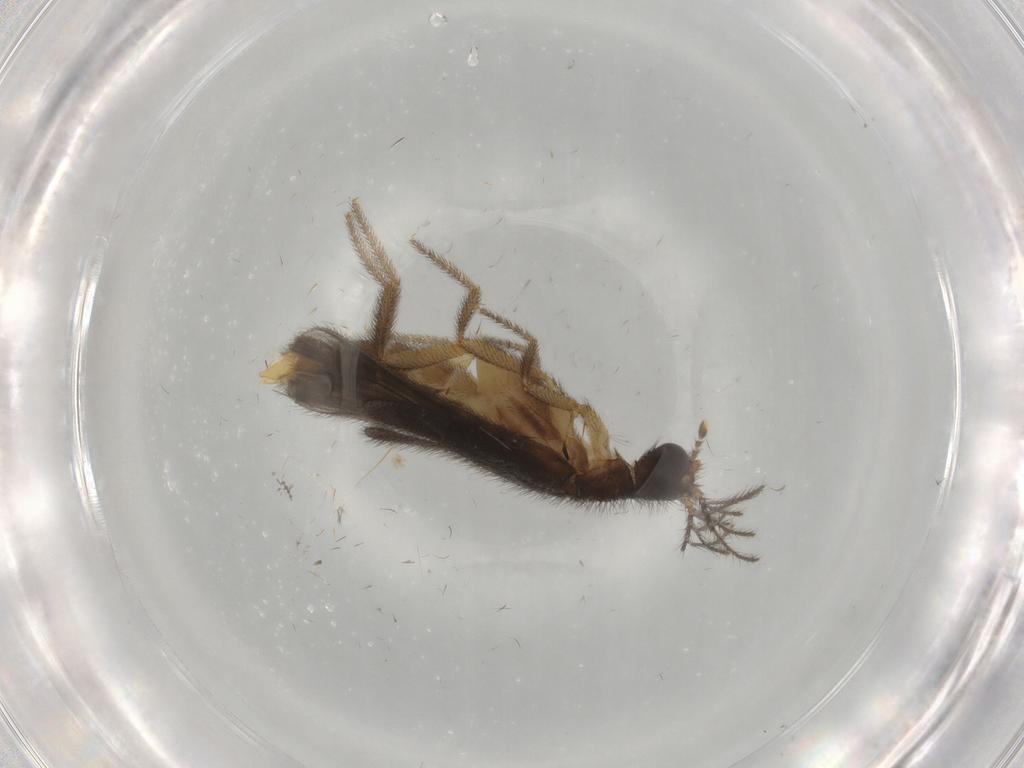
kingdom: Animalia
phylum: Arthropoda
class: Insecta
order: Coleoptera
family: Phengodidae
